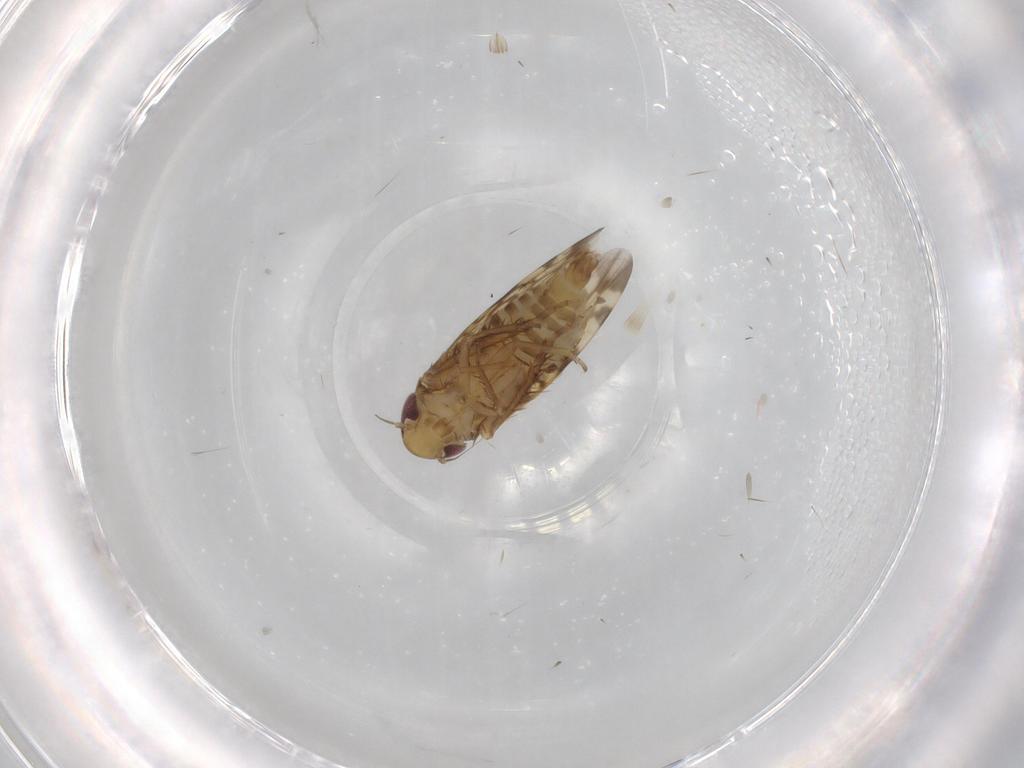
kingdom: Animalia
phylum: Arthropoda
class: Insecta
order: Hemiptera
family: Cicadellidae
